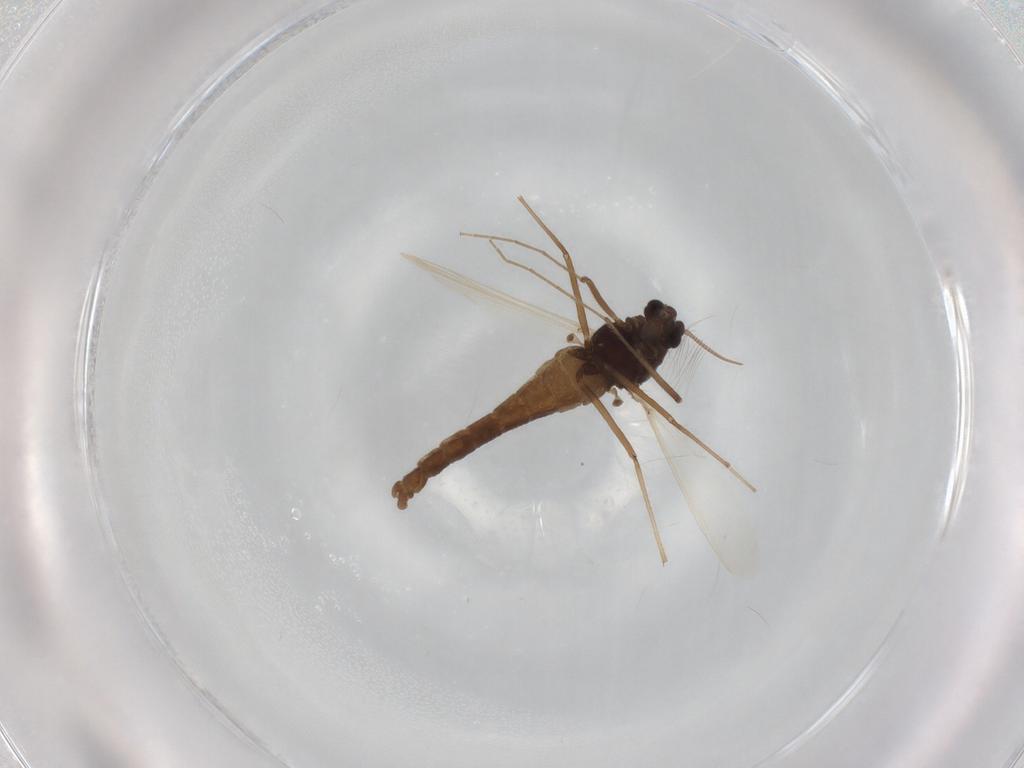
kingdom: Animalia
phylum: Arthropoda
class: Insecta
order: Diptera
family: Chironomidae
